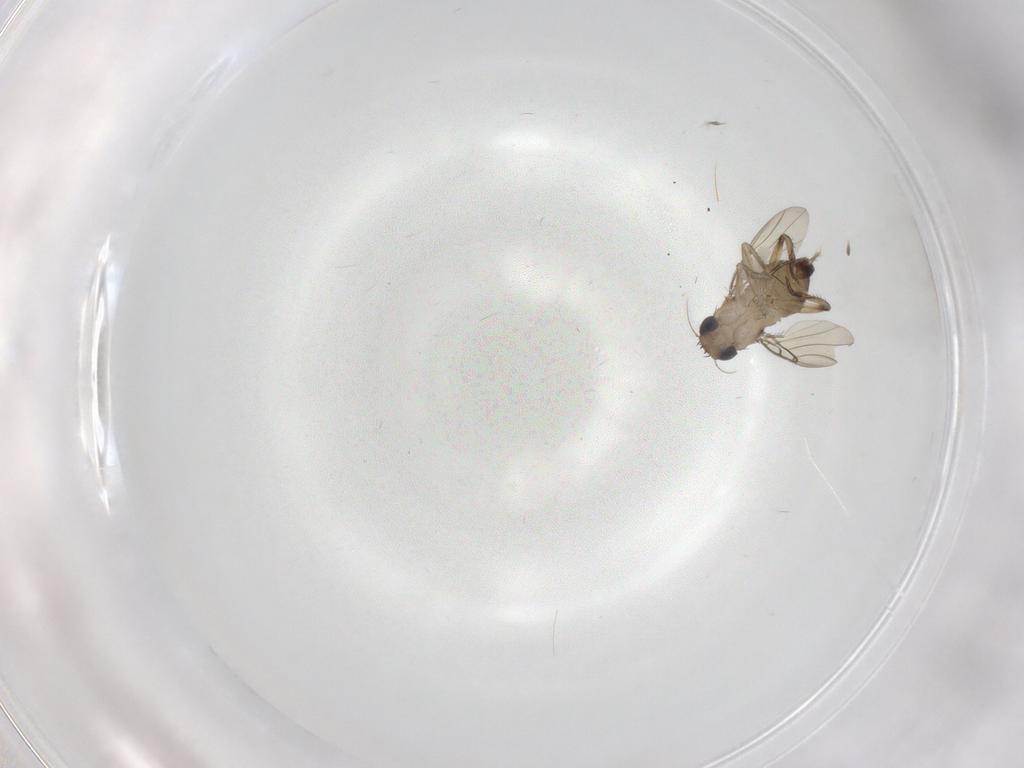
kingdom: Animalia
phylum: Arthropoda
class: Insecta
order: Diptera
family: Phoridae
